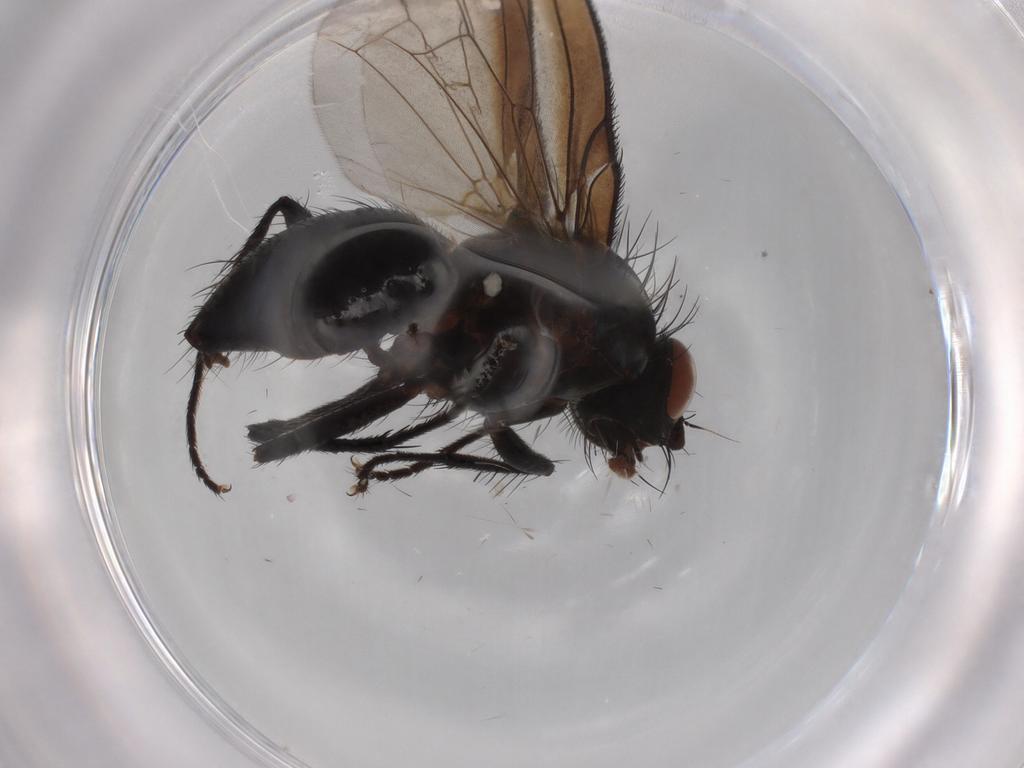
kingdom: Animalia
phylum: Arthropoda
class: Insecta
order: Diptera
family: Anthomyiidae
